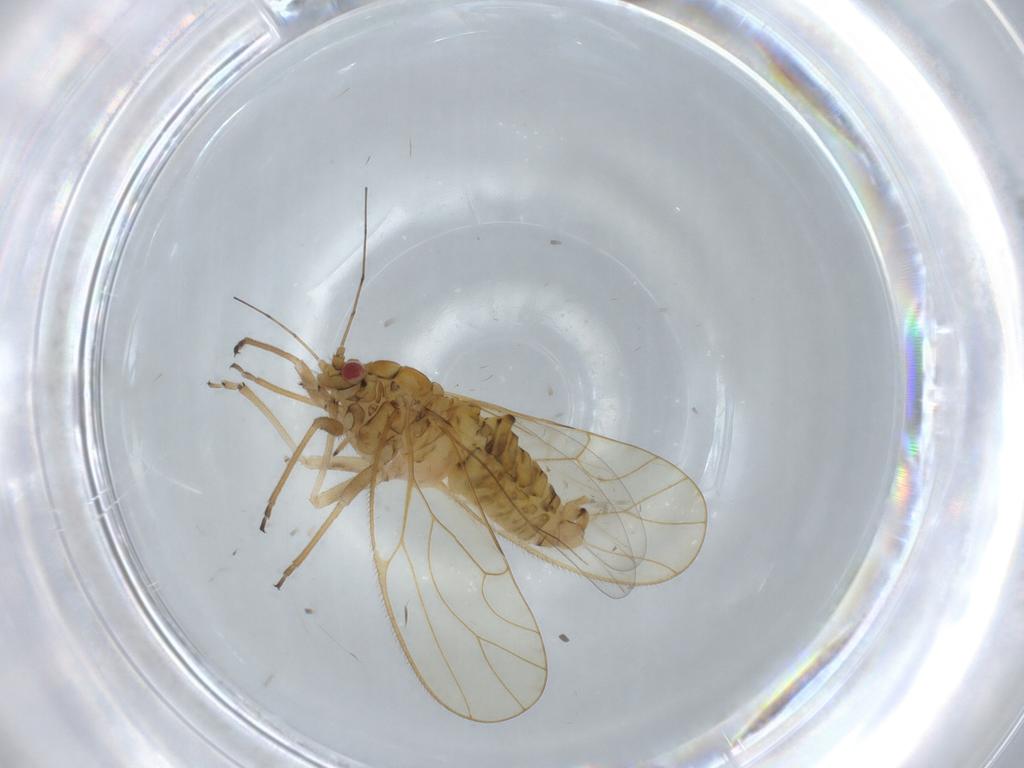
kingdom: Animalia
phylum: Arthropoda
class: Insecta
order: Hemiptera
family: Psyllidae
